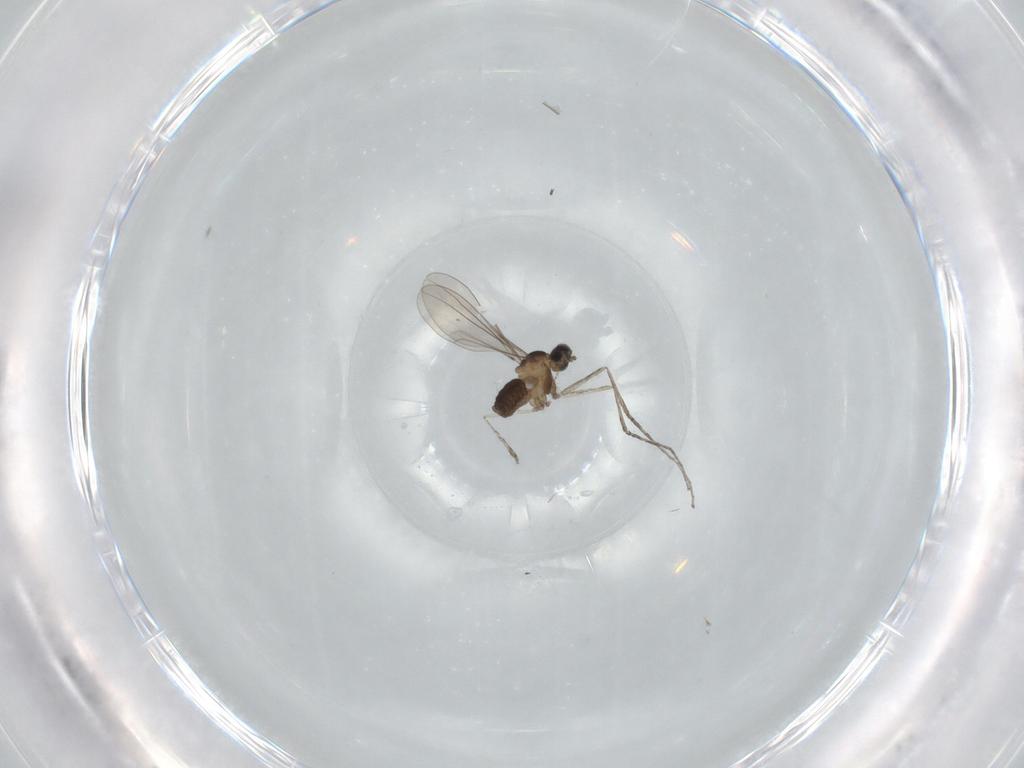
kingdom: Animalia
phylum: Arthropoda
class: Insecta
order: Diptera
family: Cecidomyiidae
